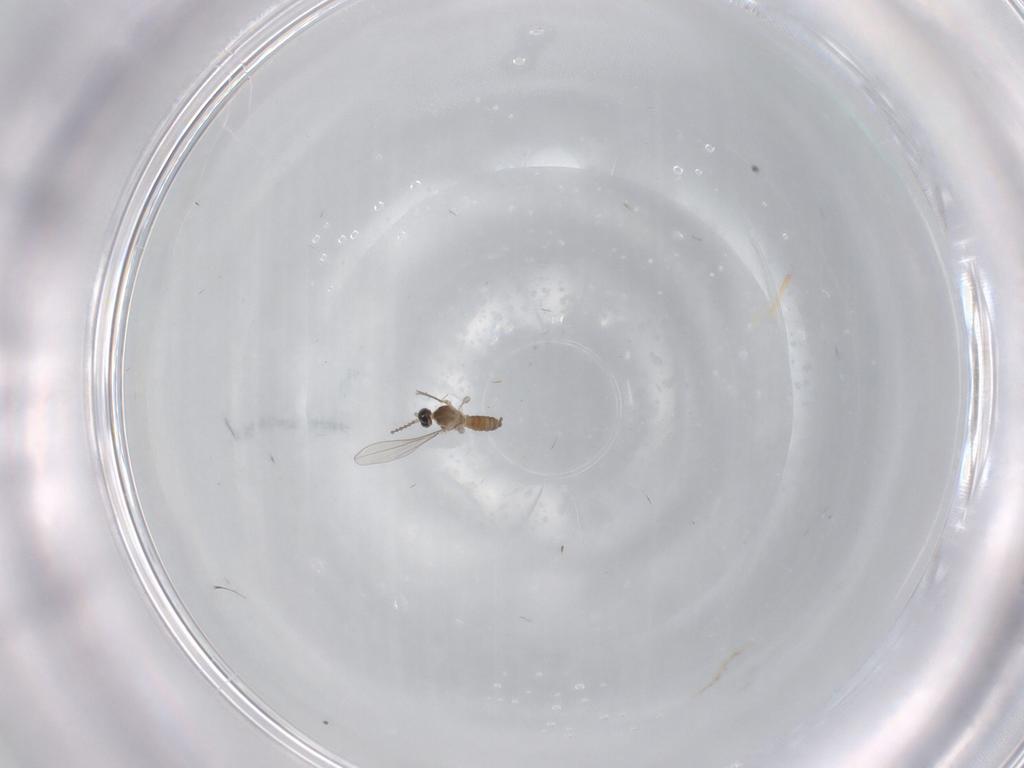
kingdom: Animalia
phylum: Arthropoda
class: Insecta
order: Diptera
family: Cecidomyiidae
